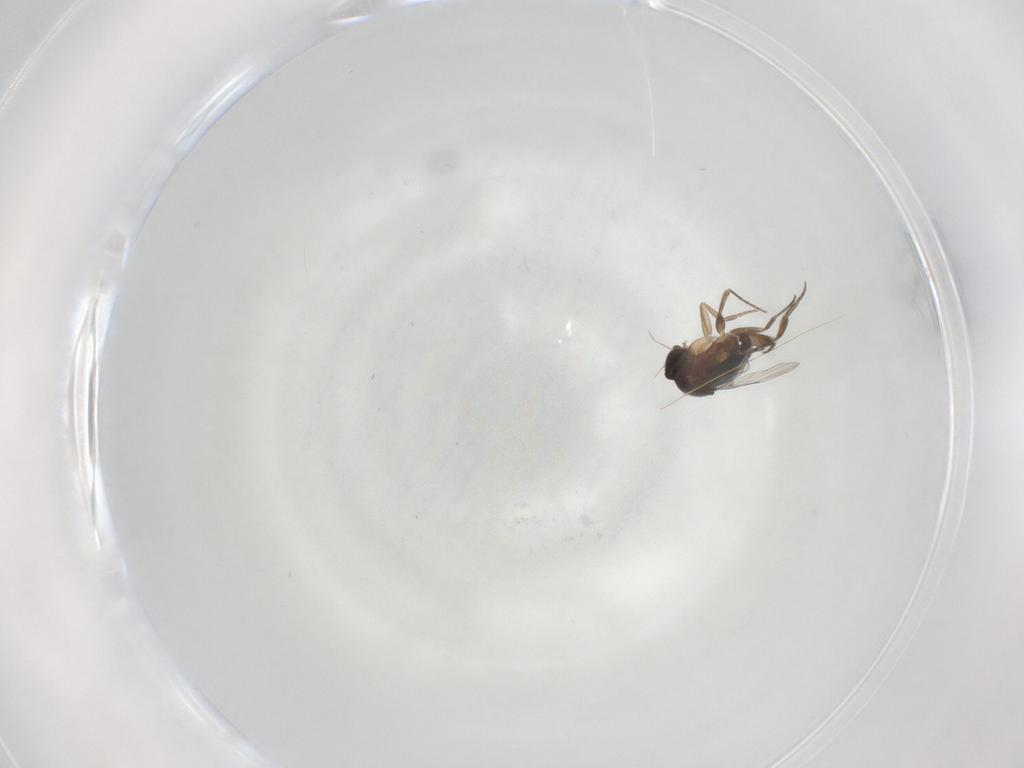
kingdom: Animalia
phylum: Arthropoda
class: Insecta
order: Diptera
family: Phoridae
